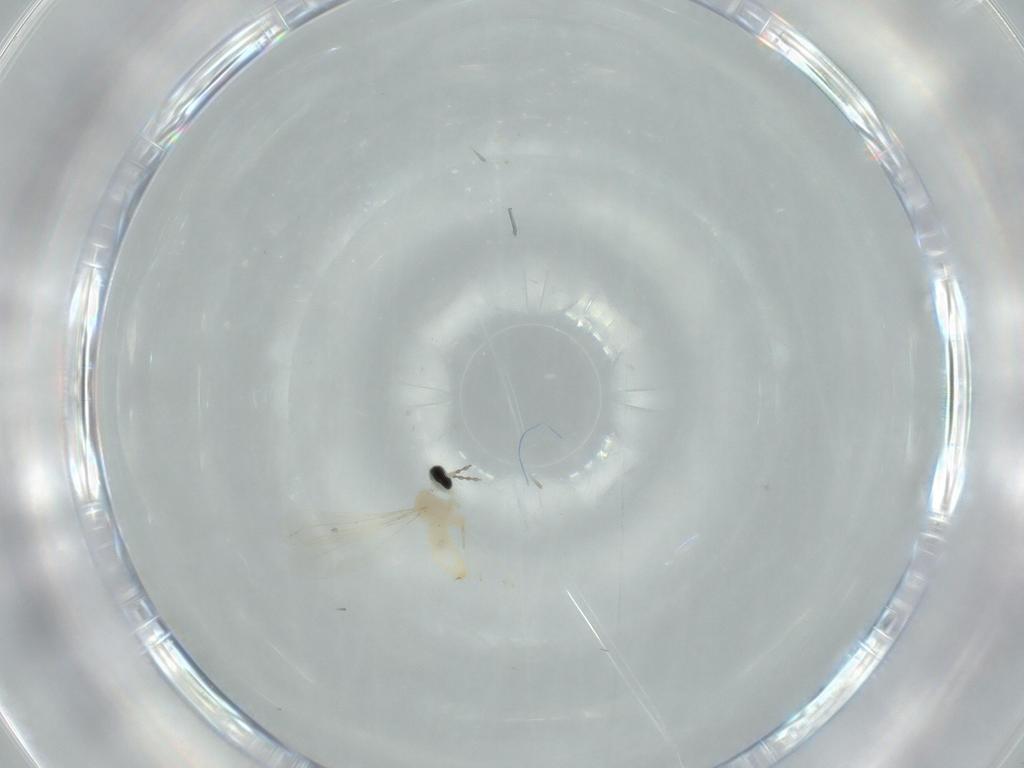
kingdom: Animalia
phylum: Arthropoda
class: Insecta
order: Diptera
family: Cecidomyiidae
